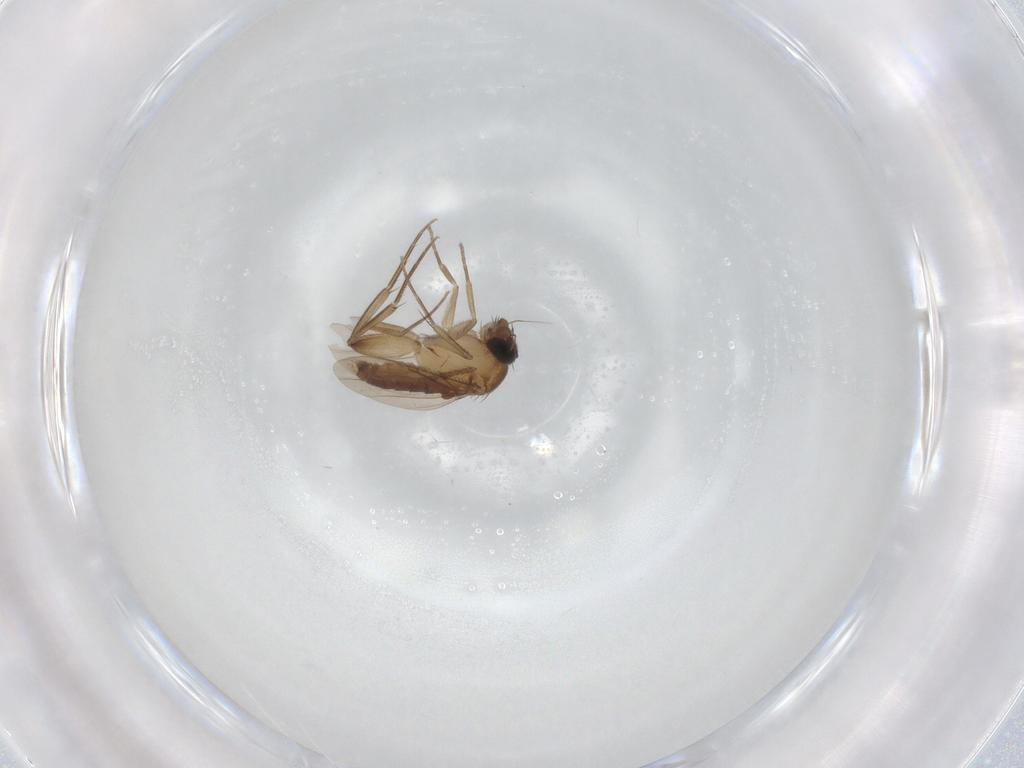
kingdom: Animalia
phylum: Arthropoda
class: Insecta
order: Diptera
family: Phoridae
